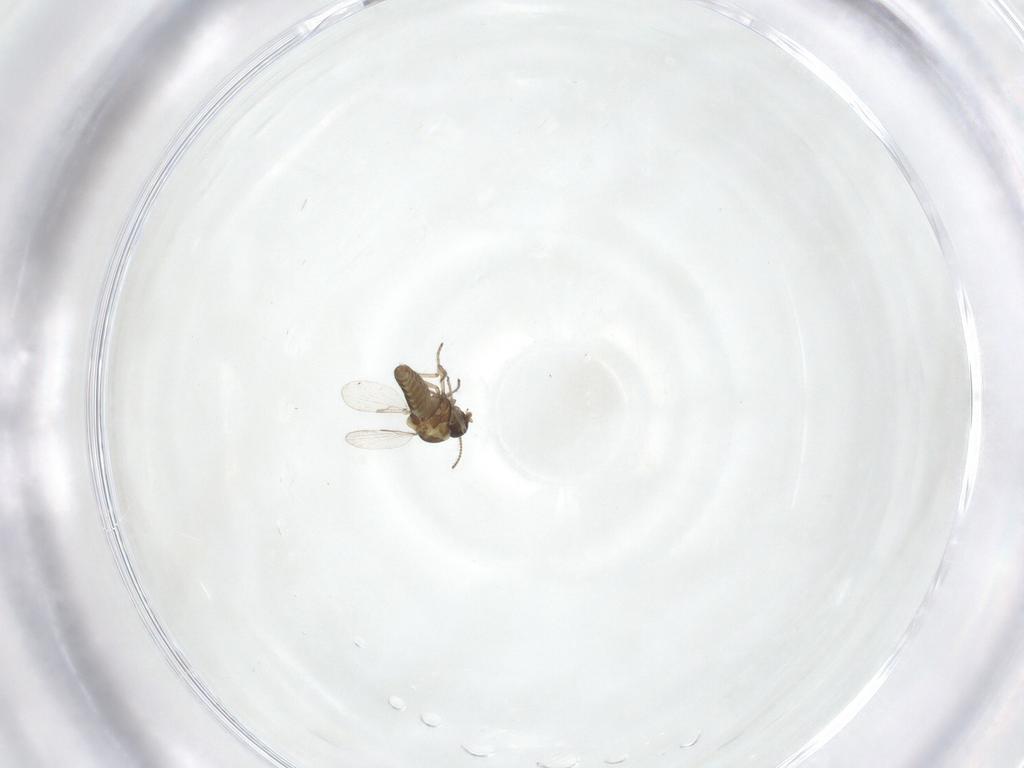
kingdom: Animalia
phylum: Arthropoda
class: Insecta
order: Diptera
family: Ceratopogonidae
